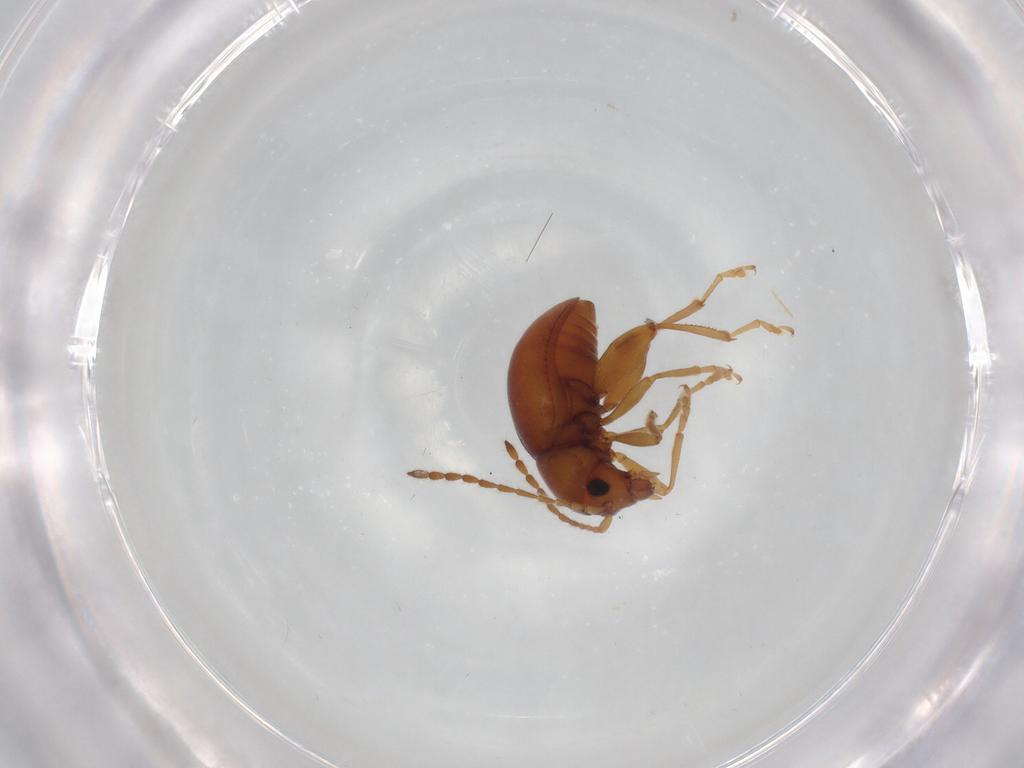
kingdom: Animalia
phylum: Arthropoda
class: Insecta
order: Coleoptera
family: Chrysomelidae
